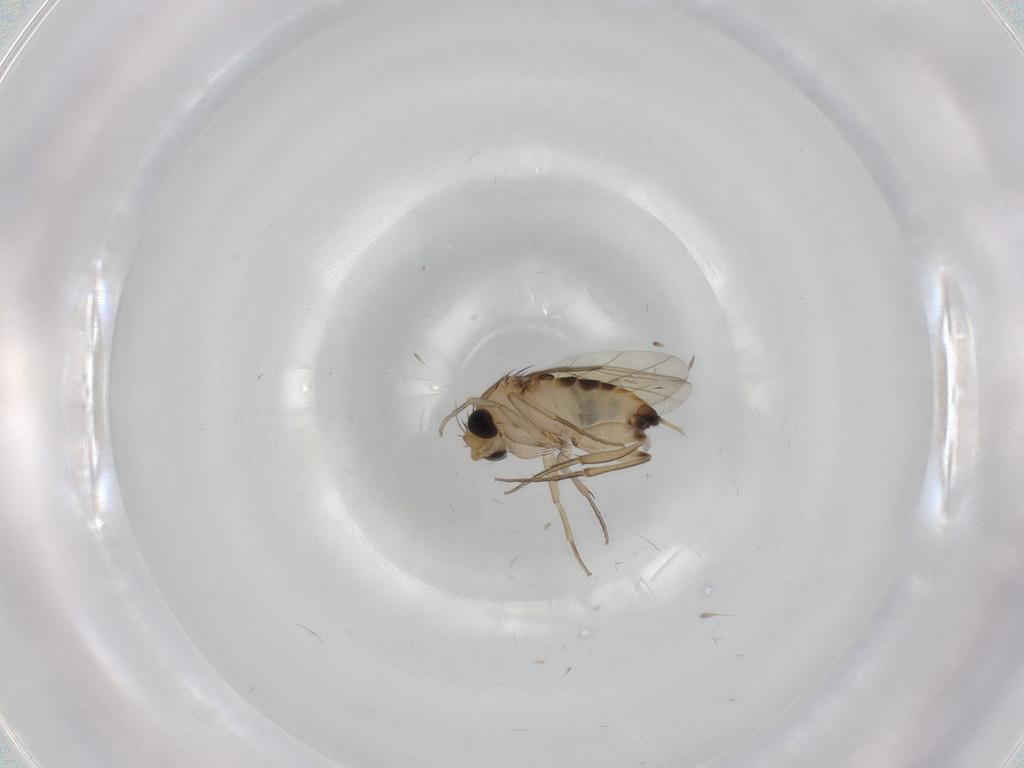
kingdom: Animalia
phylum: Arthropoda
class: Insecta
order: Diptera
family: Phoridae
